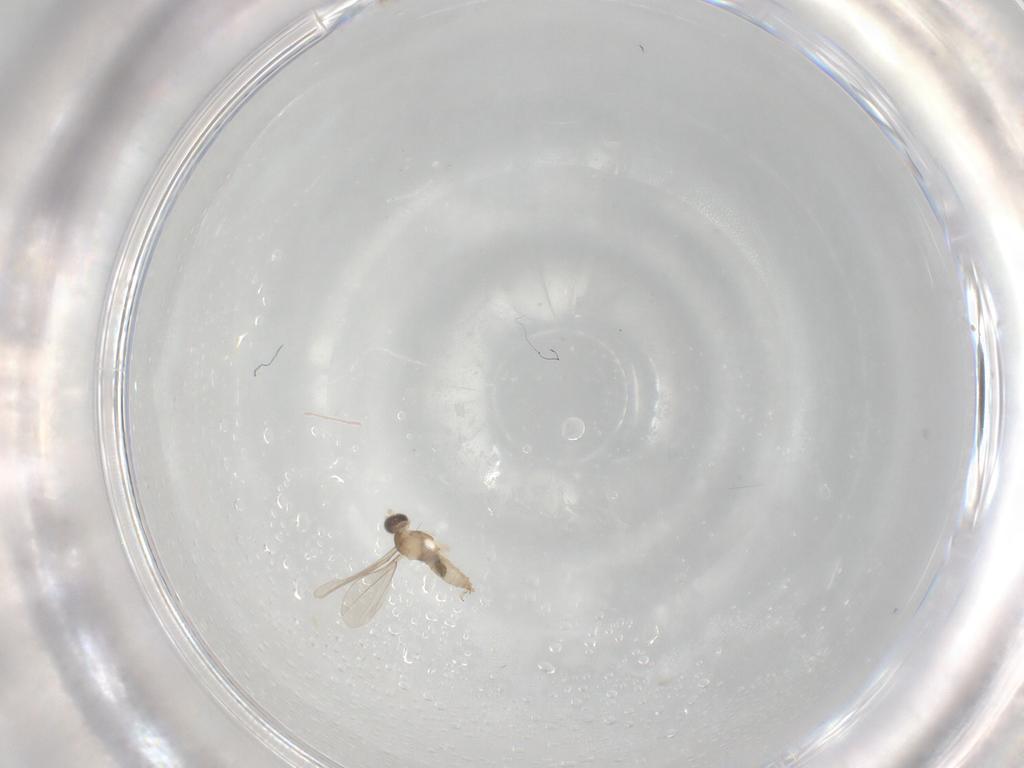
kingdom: Animalia
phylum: Arthropoda
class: Insecta
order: Diptera
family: Cecidomyiidae
